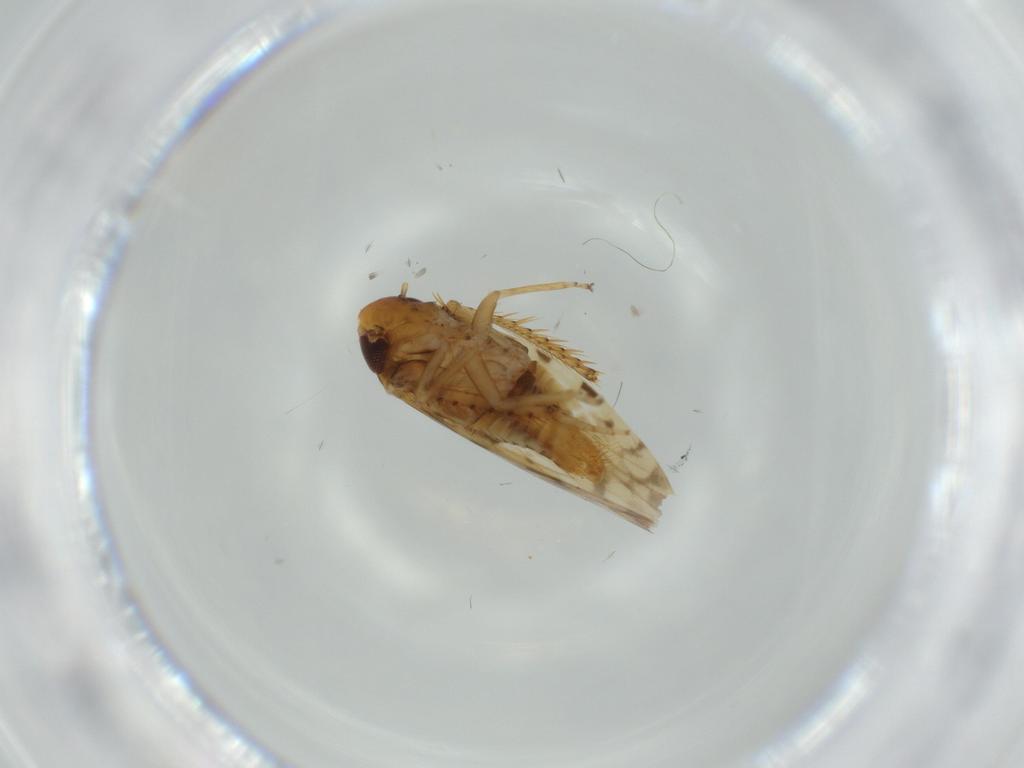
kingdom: Animalia
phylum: Arthropoda
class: Insecta
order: Hemiptera
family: Cicadellidae
